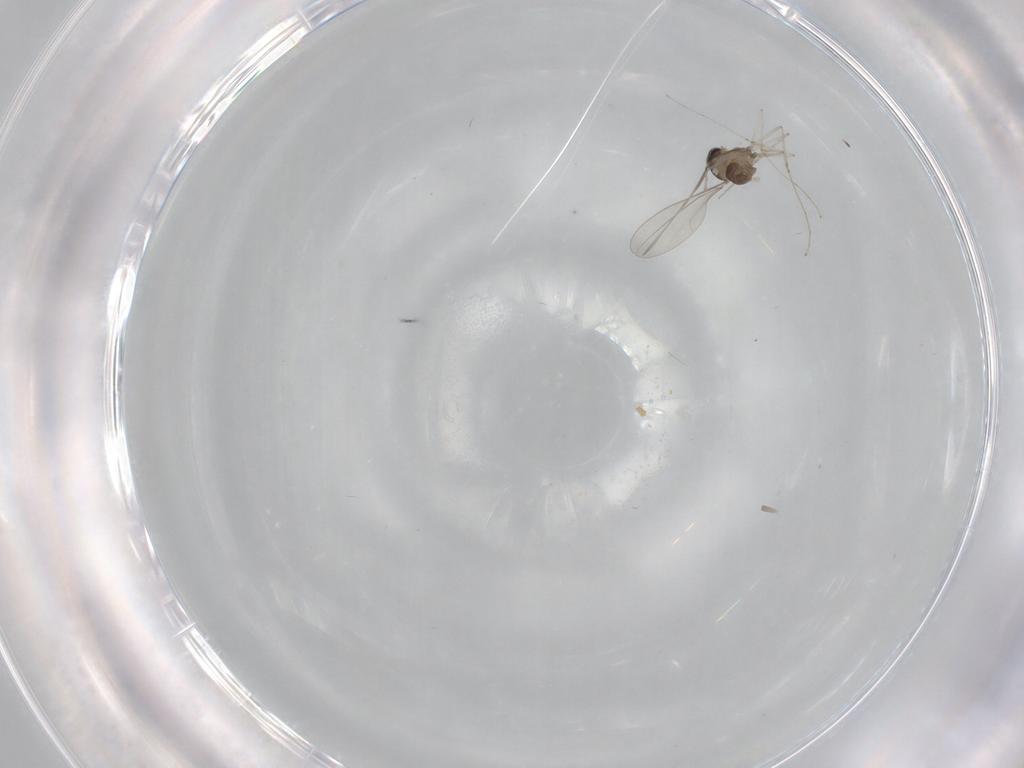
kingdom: Animalia
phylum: Arthropoda
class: Insecta
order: Diptera
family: Cecidomyiidae
